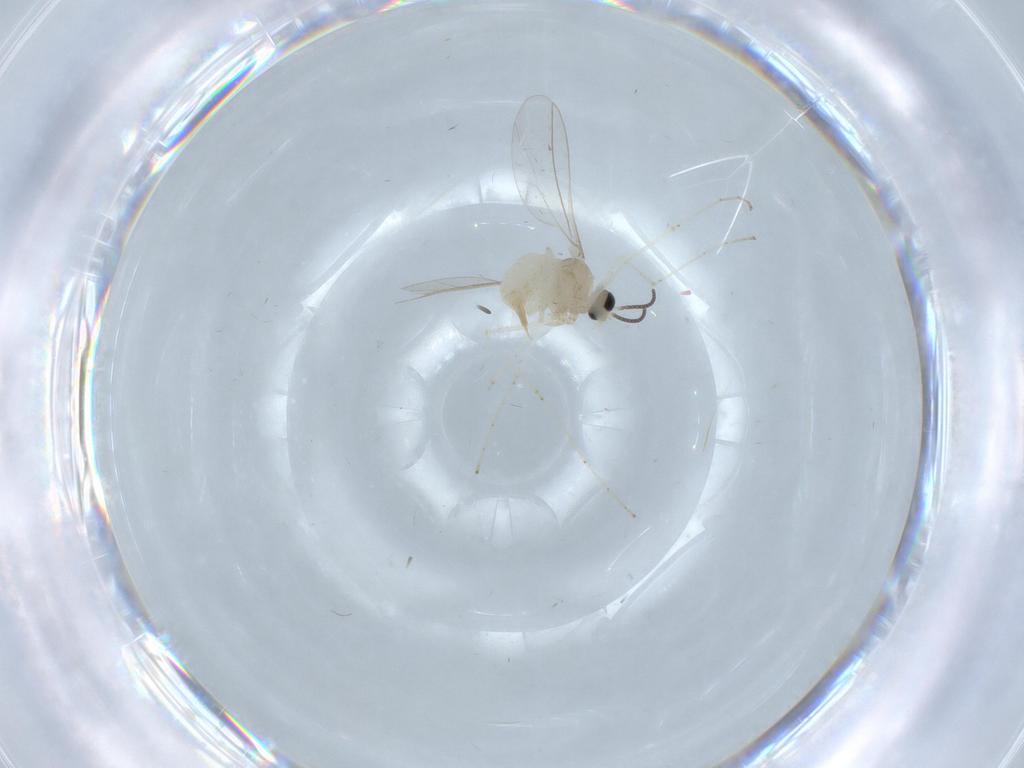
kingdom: Animalia
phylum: Arthropoda
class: Insecta
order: Diptera
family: Cecidomyiidae
